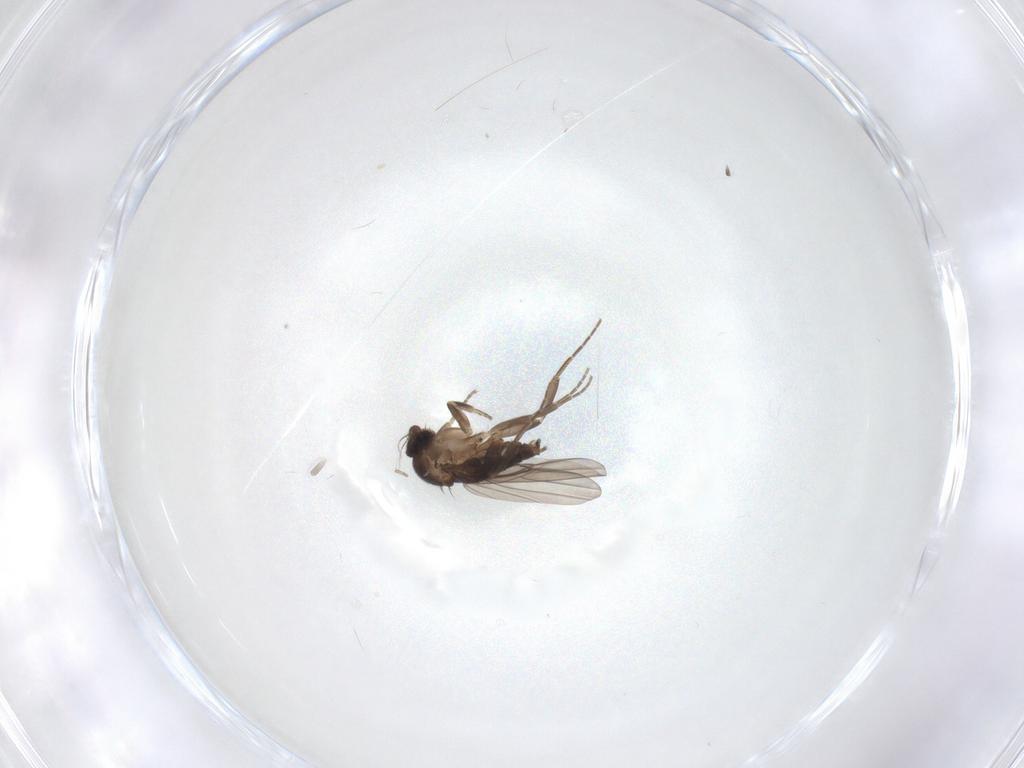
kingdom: Animalia
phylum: Arthropoda
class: Insecta
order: Diptera
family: Phoridae
